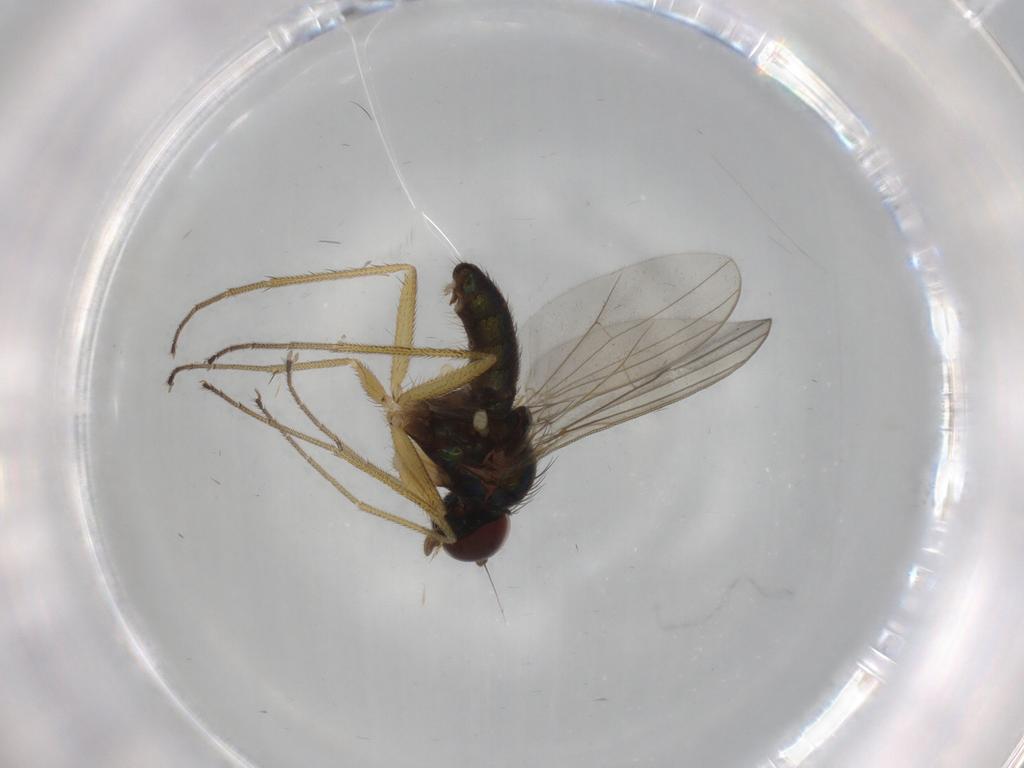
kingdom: Animalia
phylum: Arthropoda
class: Insecta
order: Diptera
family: Dolichopodidae
